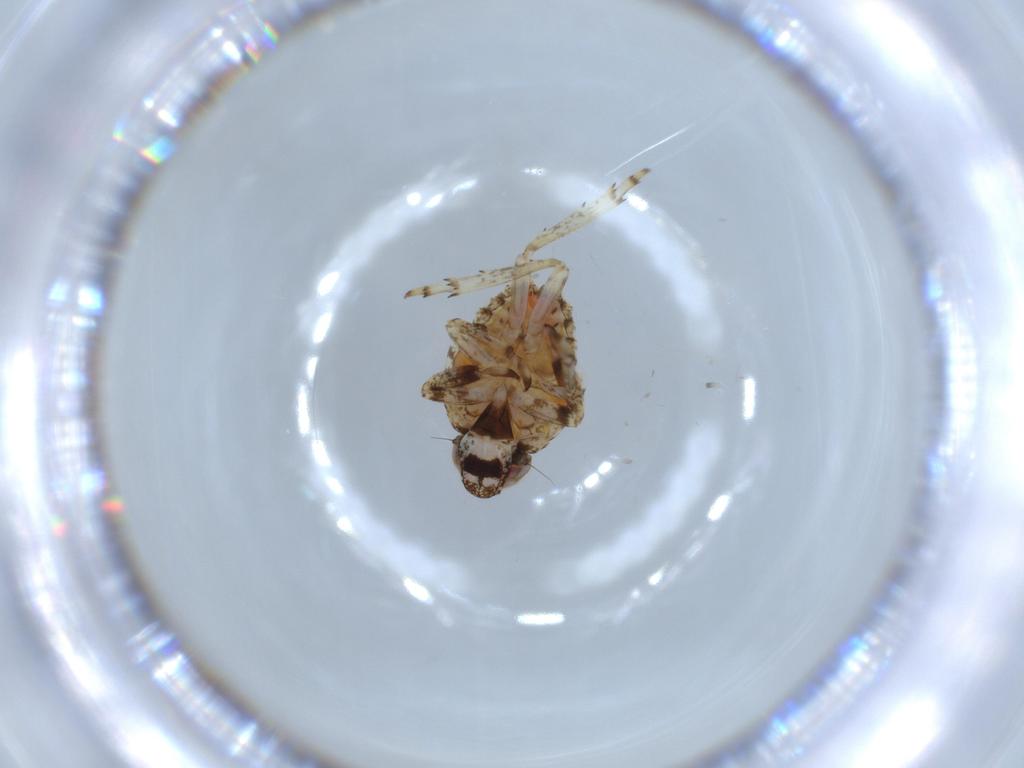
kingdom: Animalia
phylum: Arthropoda
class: Insecta
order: Hemiptera
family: Issidae
